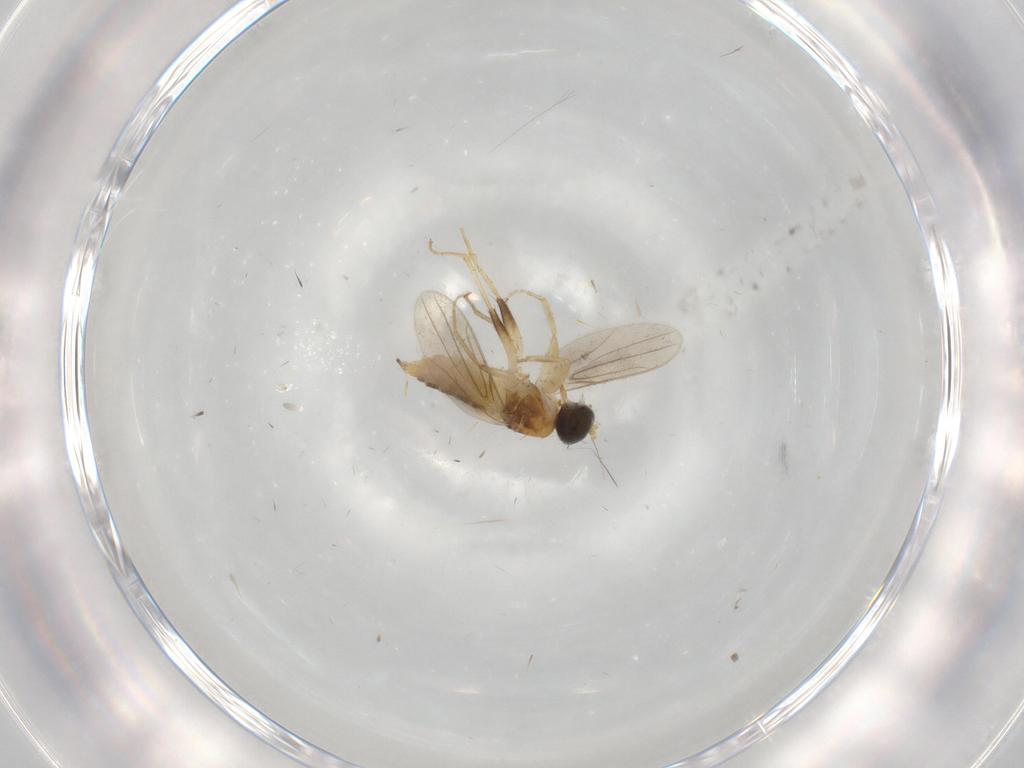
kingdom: Animalia
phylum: Arthropoda
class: Insecta
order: Diptera
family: Hybotidae
